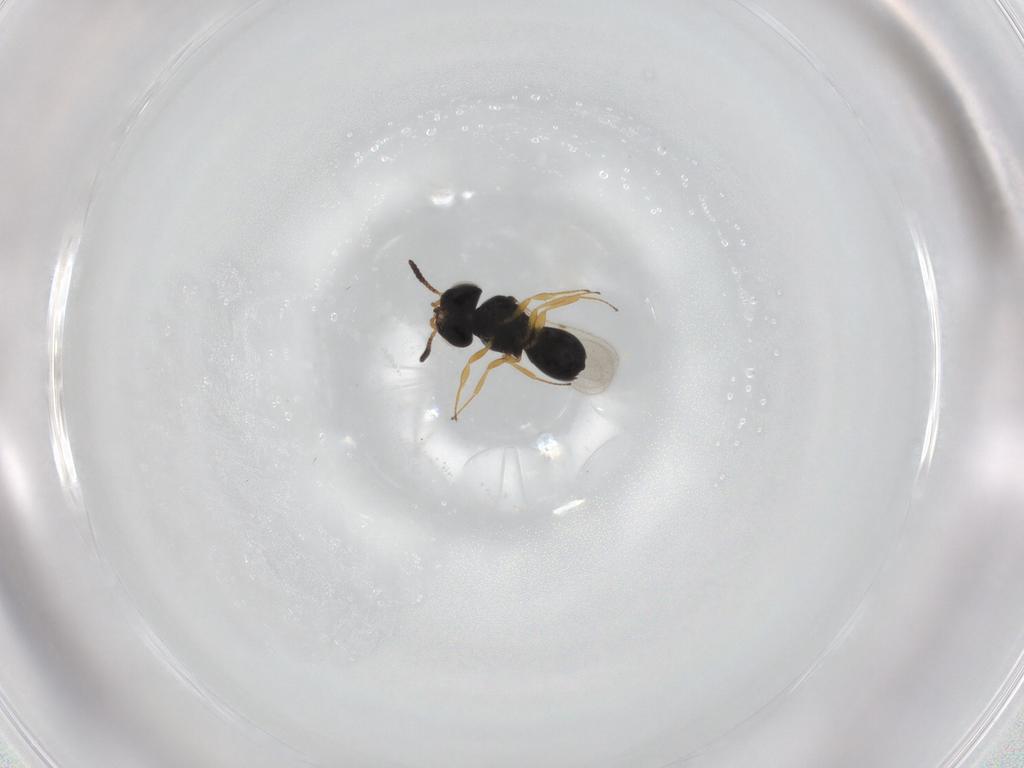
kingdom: Animalia
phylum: Arthropoda
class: Insecta
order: Hymenoptera
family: Scelionidae
